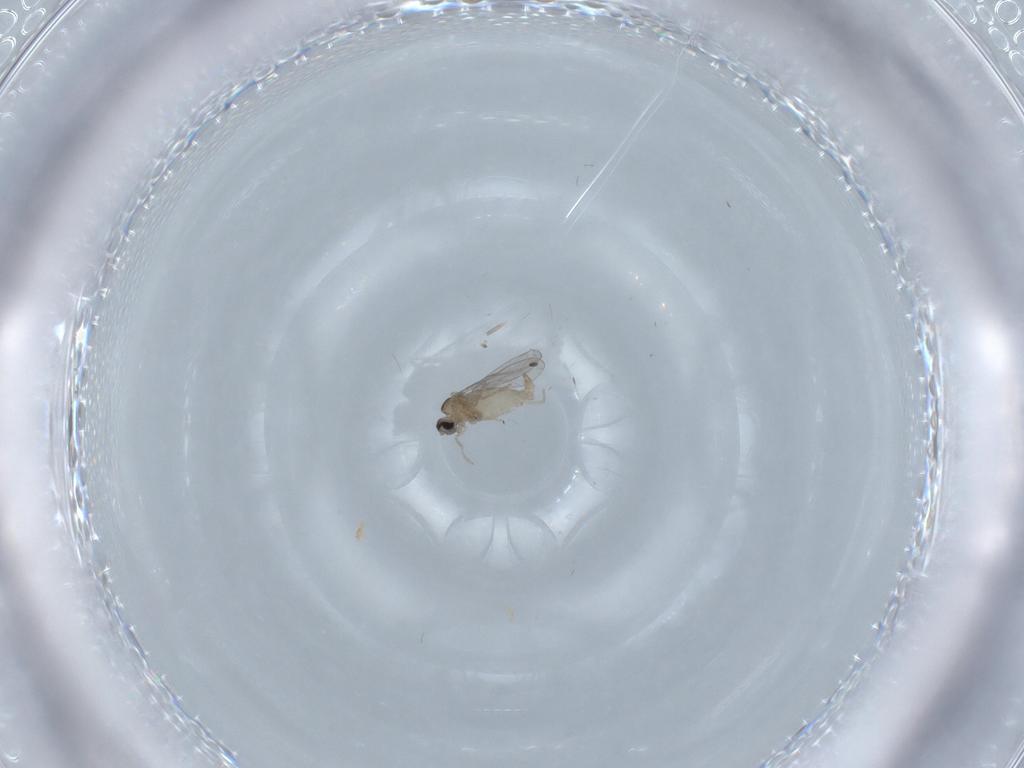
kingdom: Animalia
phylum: Arthropoda
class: Insecta
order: Diptera
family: Cecidomyiidae
